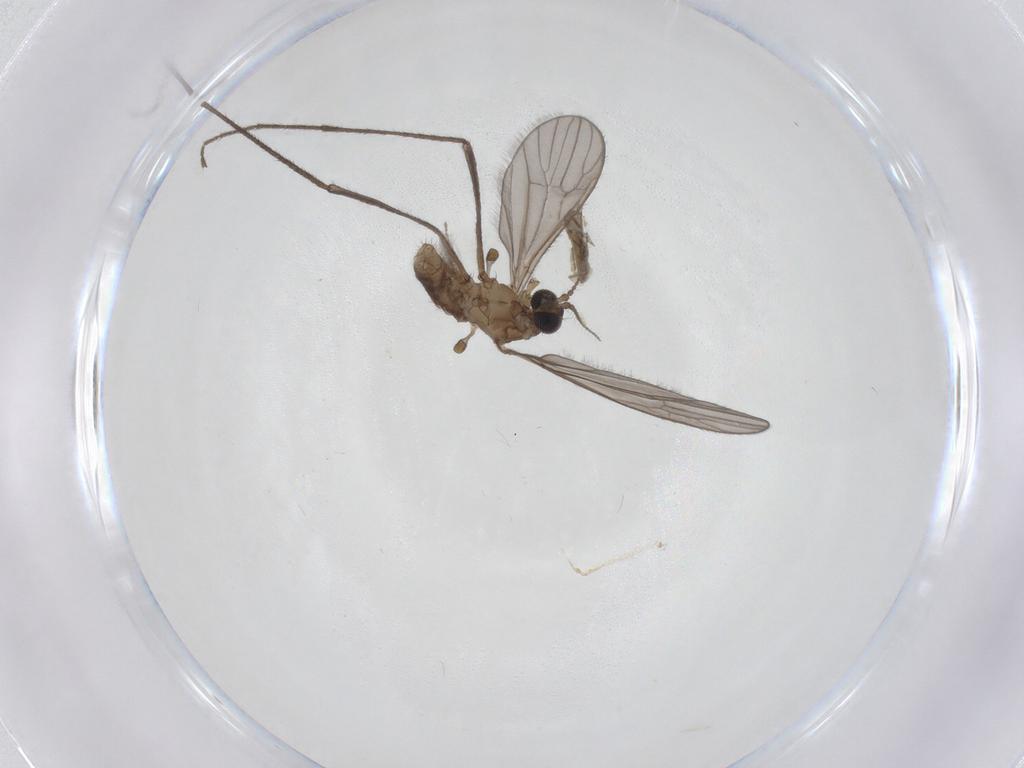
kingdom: Animalia
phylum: Arthropoda
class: Insecta
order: Diptera
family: Limoniidae
